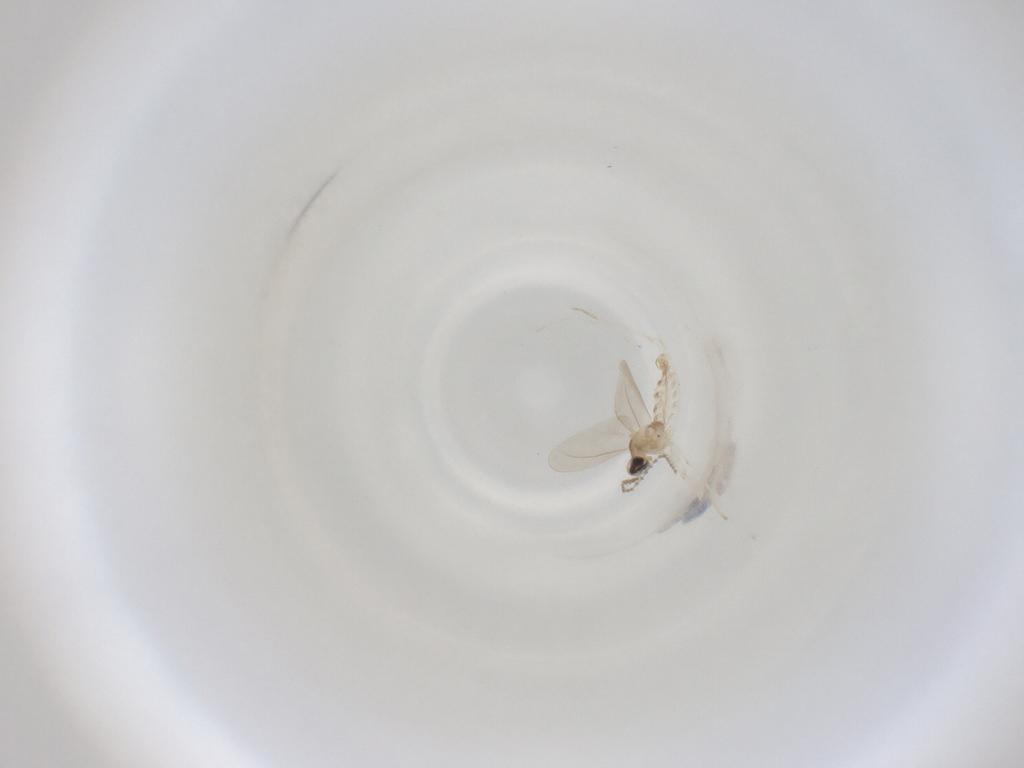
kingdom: Animalia
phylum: Arthropoda
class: Insecta
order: Diptera
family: Cecidomyiidae
